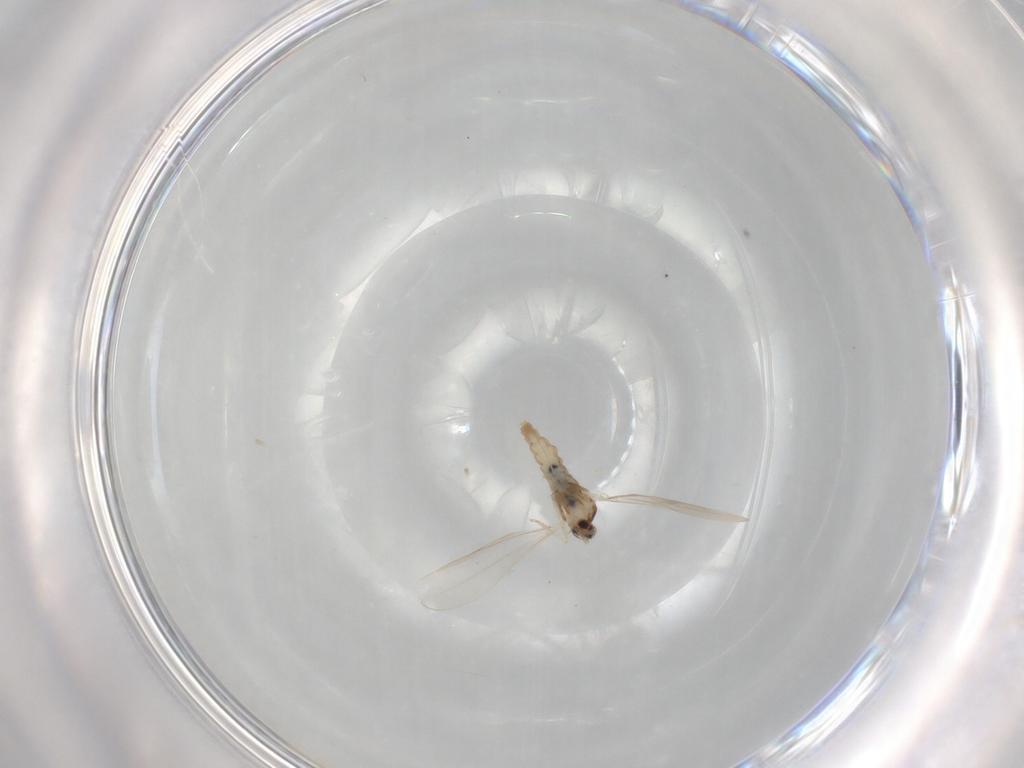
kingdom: Animalia
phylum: Arthropoda
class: Insecta
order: Diptera
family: Cecidomyiidae
